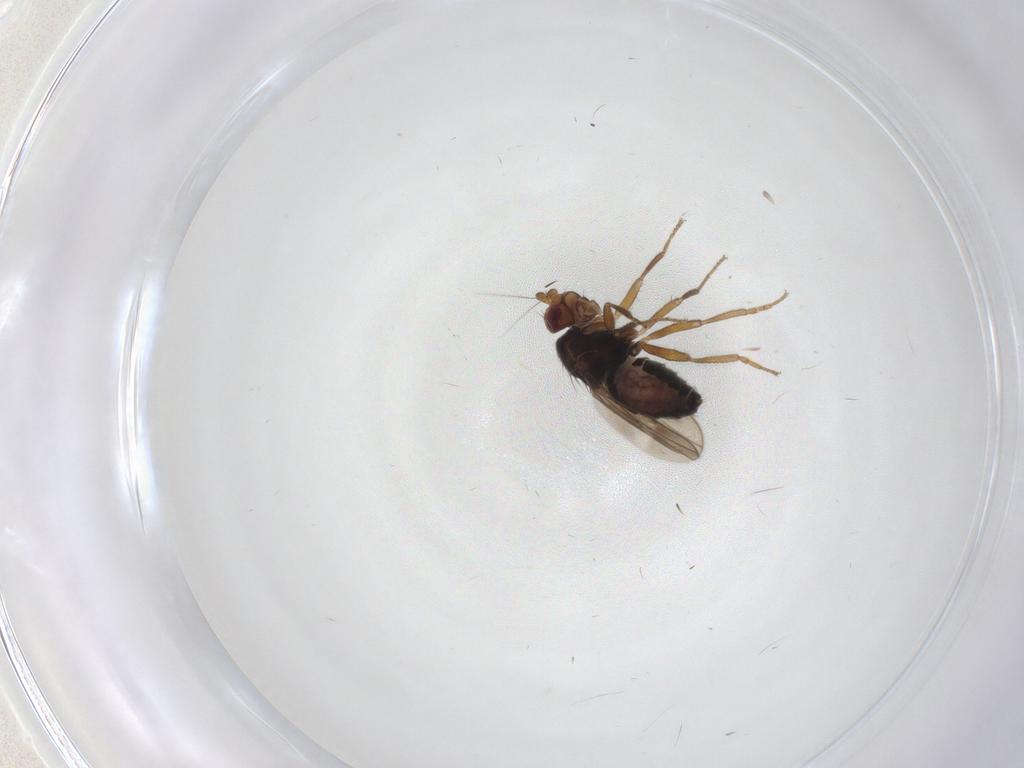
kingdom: Animalia
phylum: Arthropoda
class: Insecta
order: Diptera
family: Sphaeroceridae
